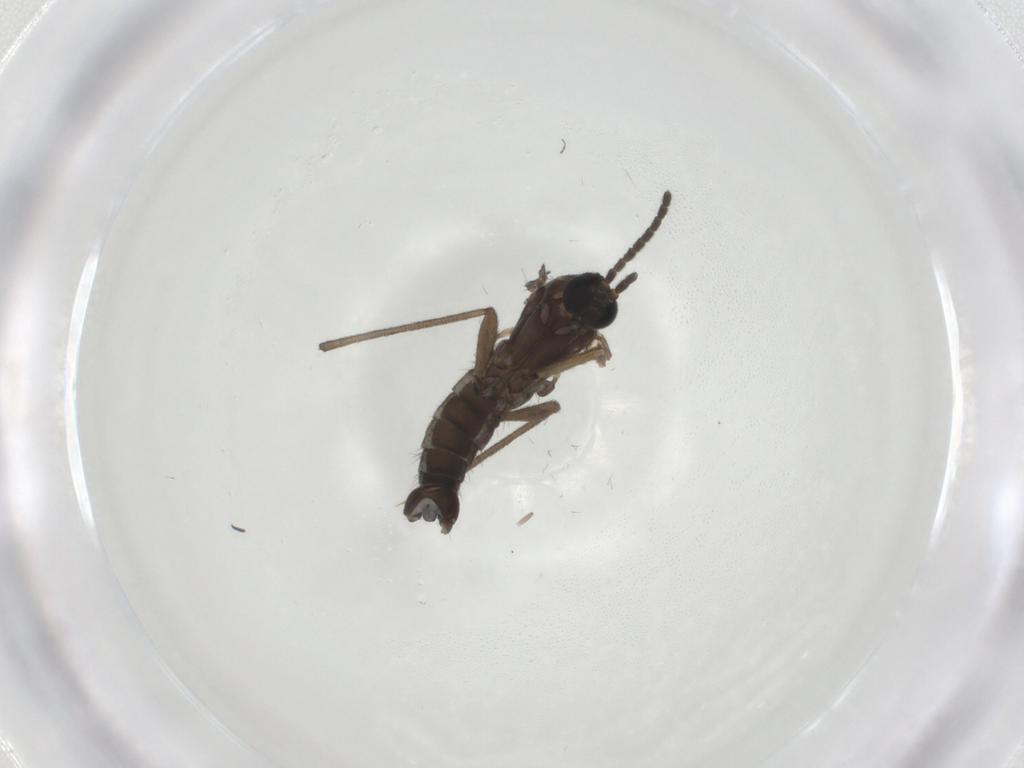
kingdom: Animalia
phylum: Arthropoda
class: Insecta
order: Diptera
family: Sciaridae
